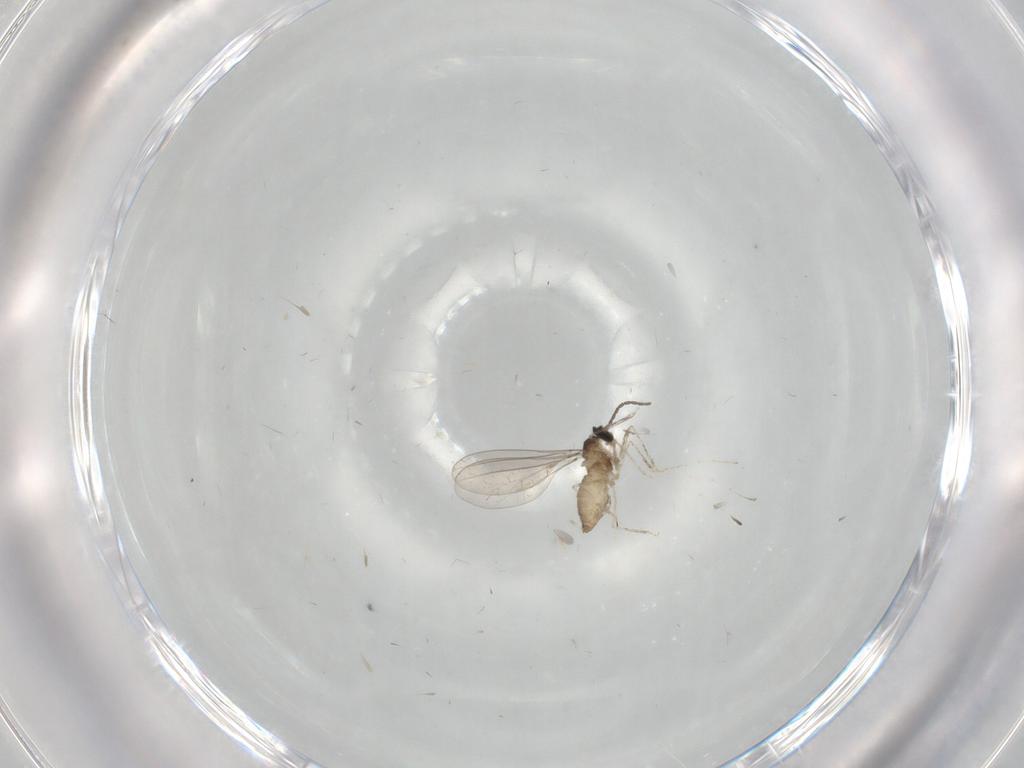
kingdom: Animalia
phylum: Arthropoda
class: Insecta
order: Diptera
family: Cecidomyiidae
